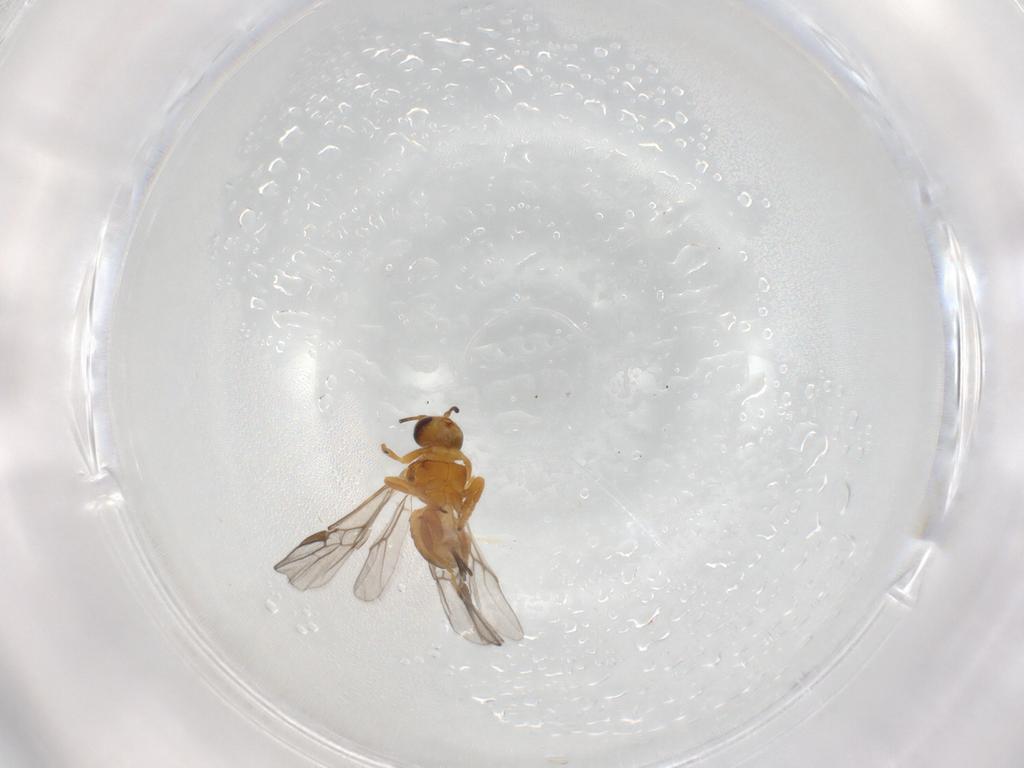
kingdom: Animalia
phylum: Arthropoda
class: Insecta
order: Hymenoptera
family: Braconidae
